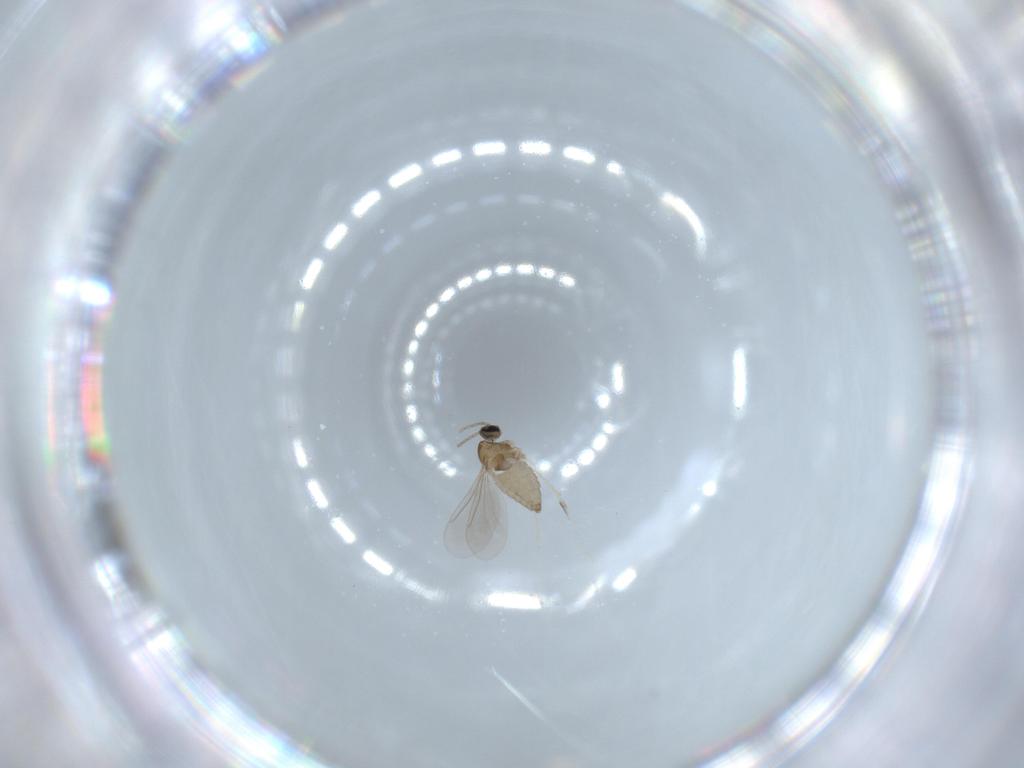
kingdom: Animalia
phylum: Arthropoda
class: Insecta
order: Diptera
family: Cecidomyiidae
